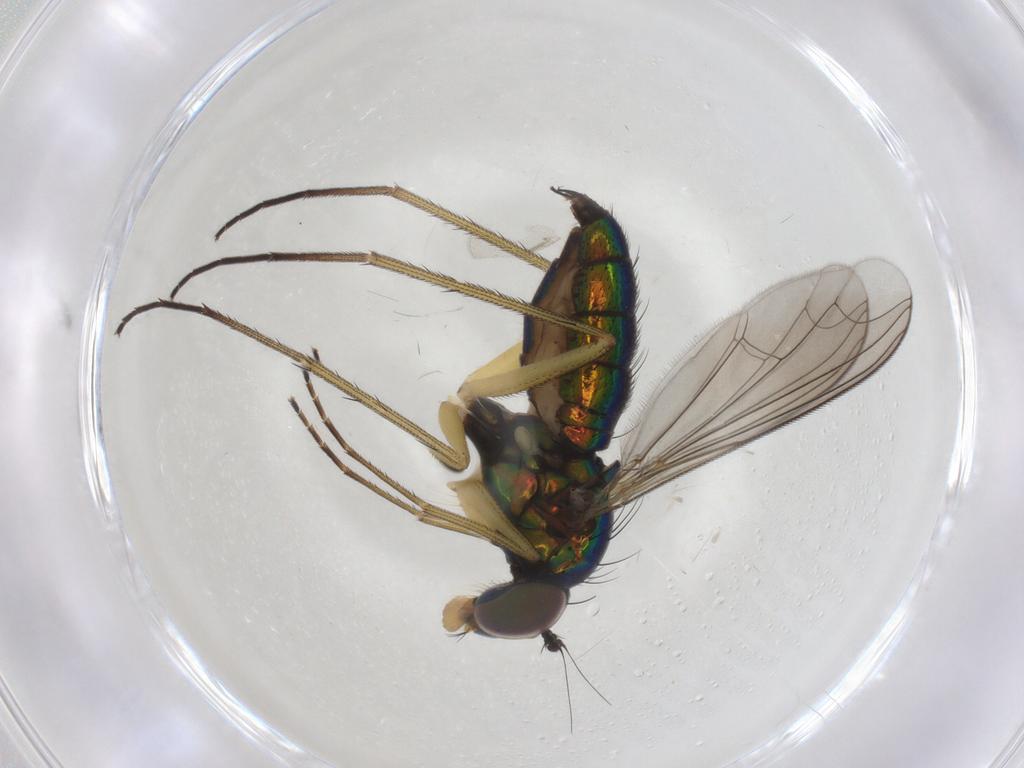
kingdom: Animalia
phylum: Arthropoda
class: Insecta
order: Diptera
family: Dolichopodidae
